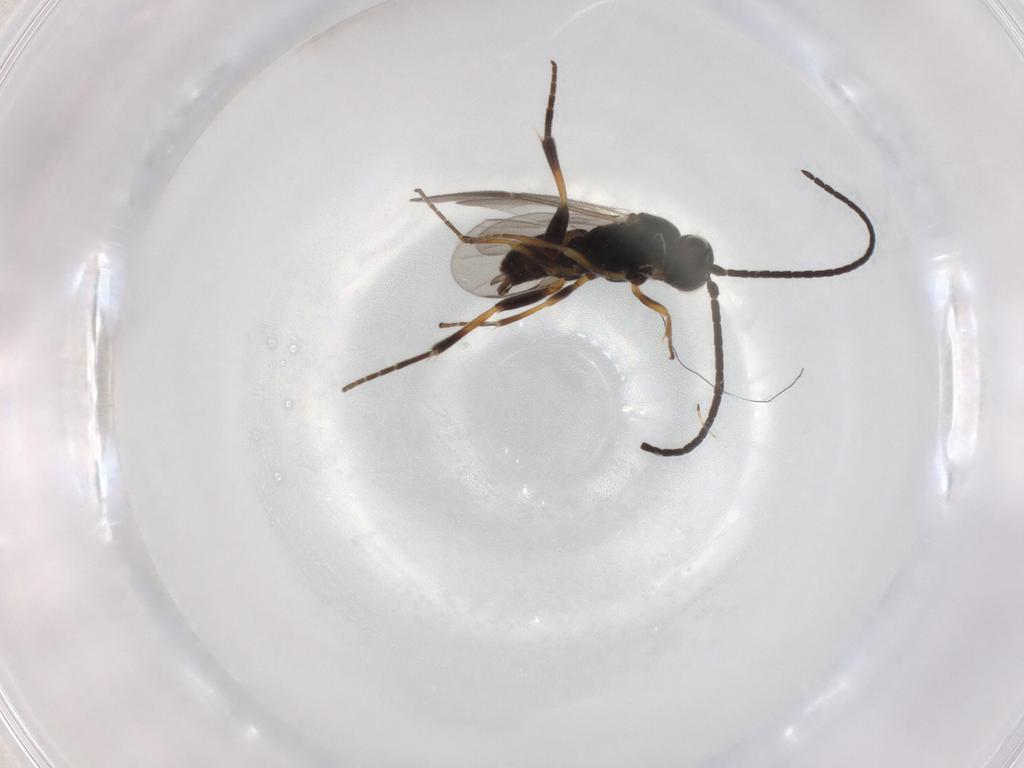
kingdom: Animalia
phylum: Arthropoda
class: Insecta
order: Hymenoptera
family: Braconidae
